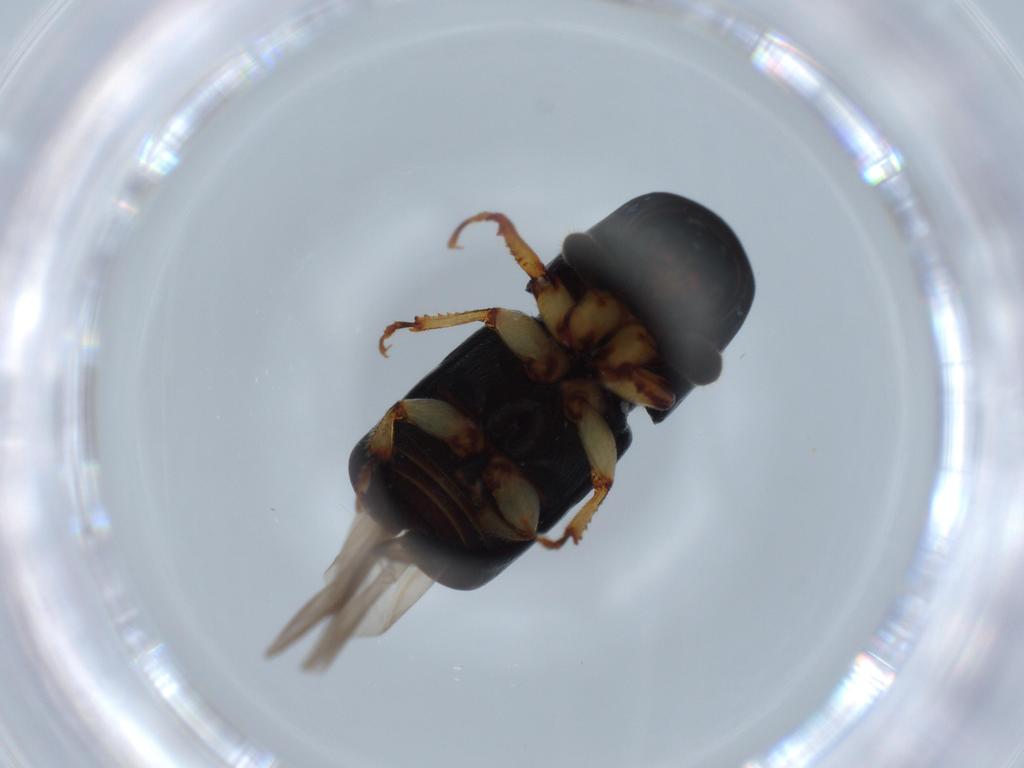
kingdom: Animalia
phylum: Arthropoda
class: Insecta
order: Coleoptera
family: Curculionidae
